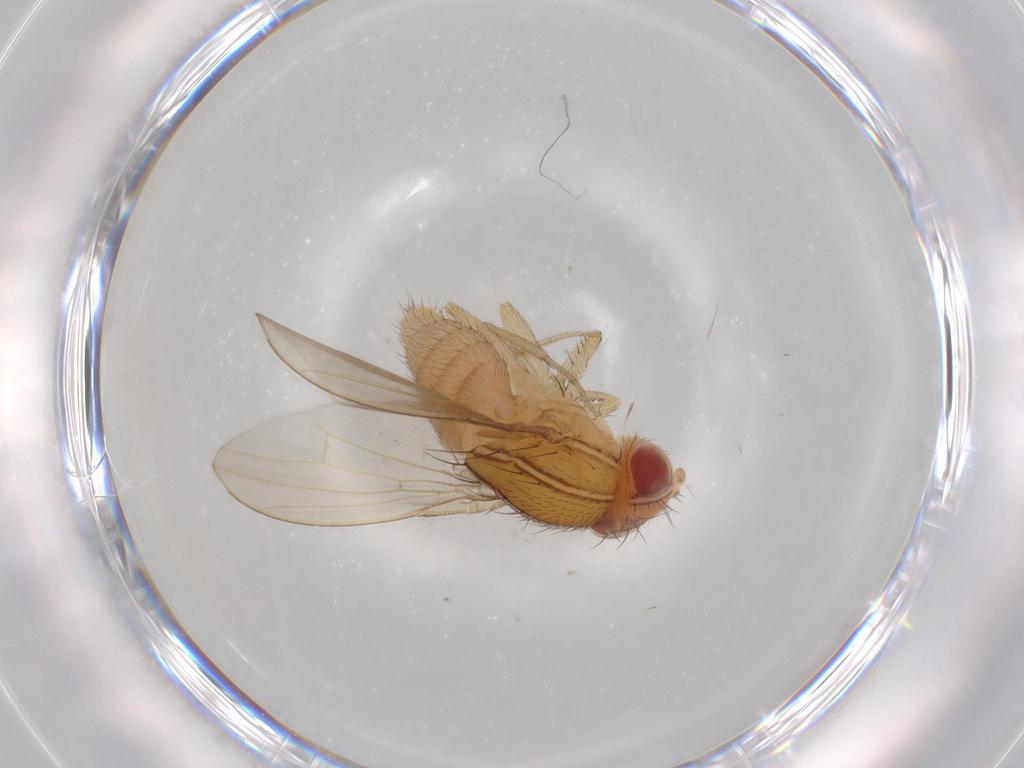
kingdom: Animalia
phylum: Arthropoda
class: Insecta
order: Diptera
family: Drosophilidae
